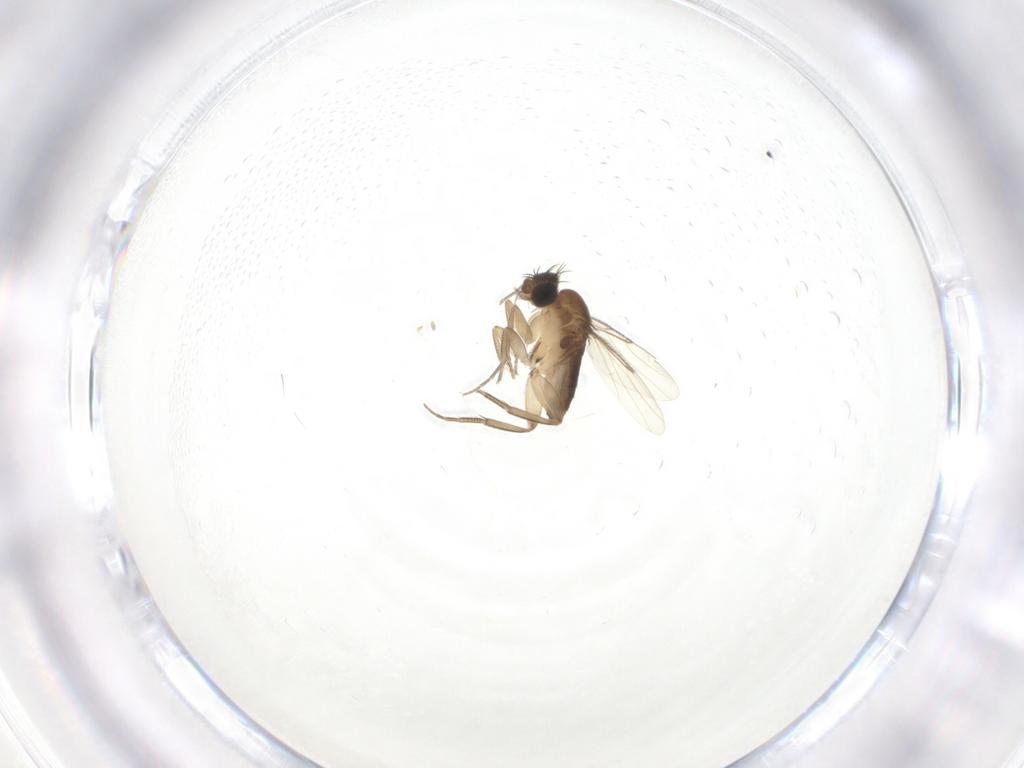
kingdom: Animalia
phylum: Arthropoda
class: Insecta
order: Diptera
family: Phoridae
